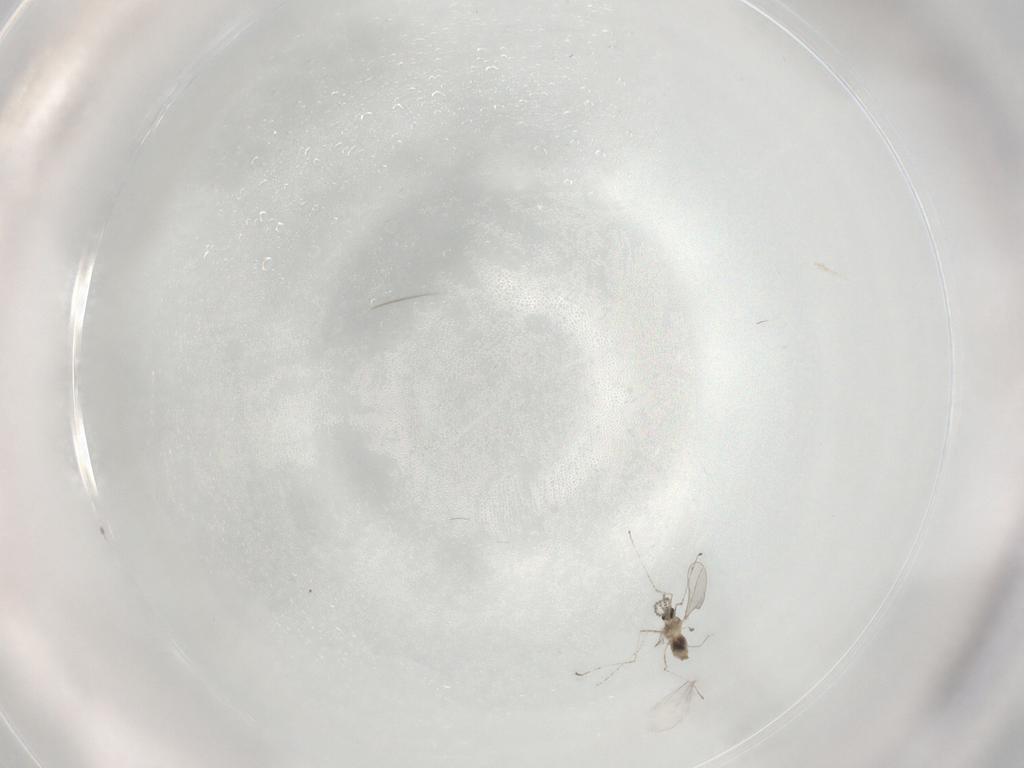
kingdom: Animalia
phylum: Arthropoda
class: Insecta
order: Diptera
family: Cecidomyiidae
